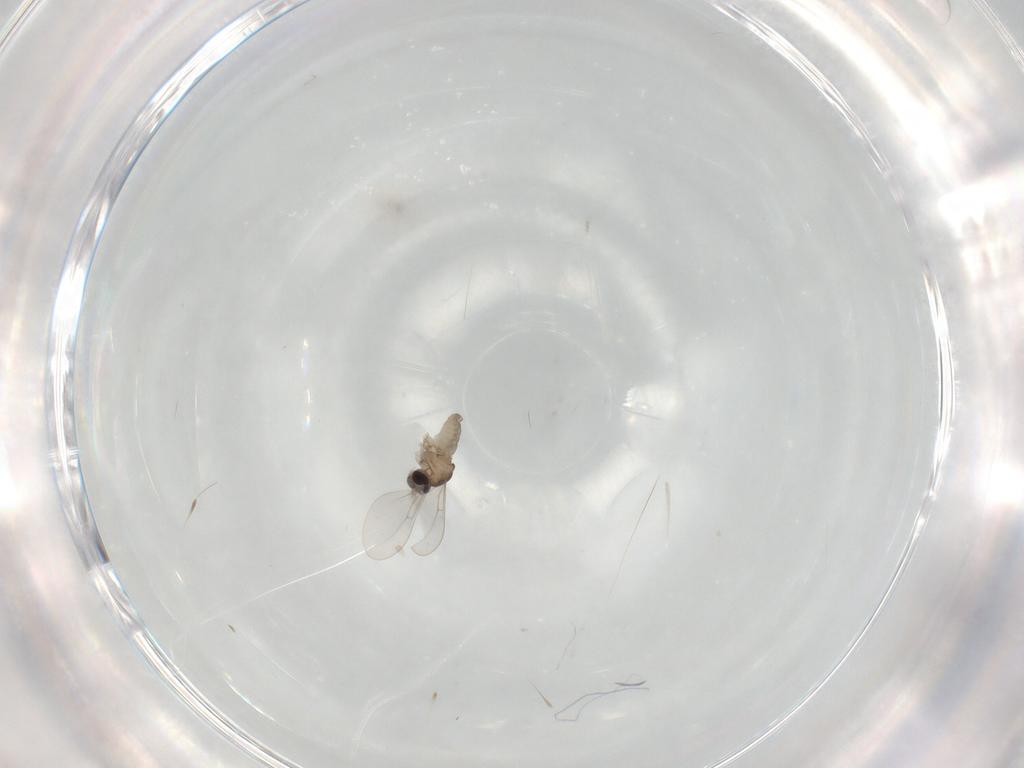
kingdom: Animalia
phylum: Arthropoda
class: Insecta
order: Diptera
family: Cecidomyiidae
